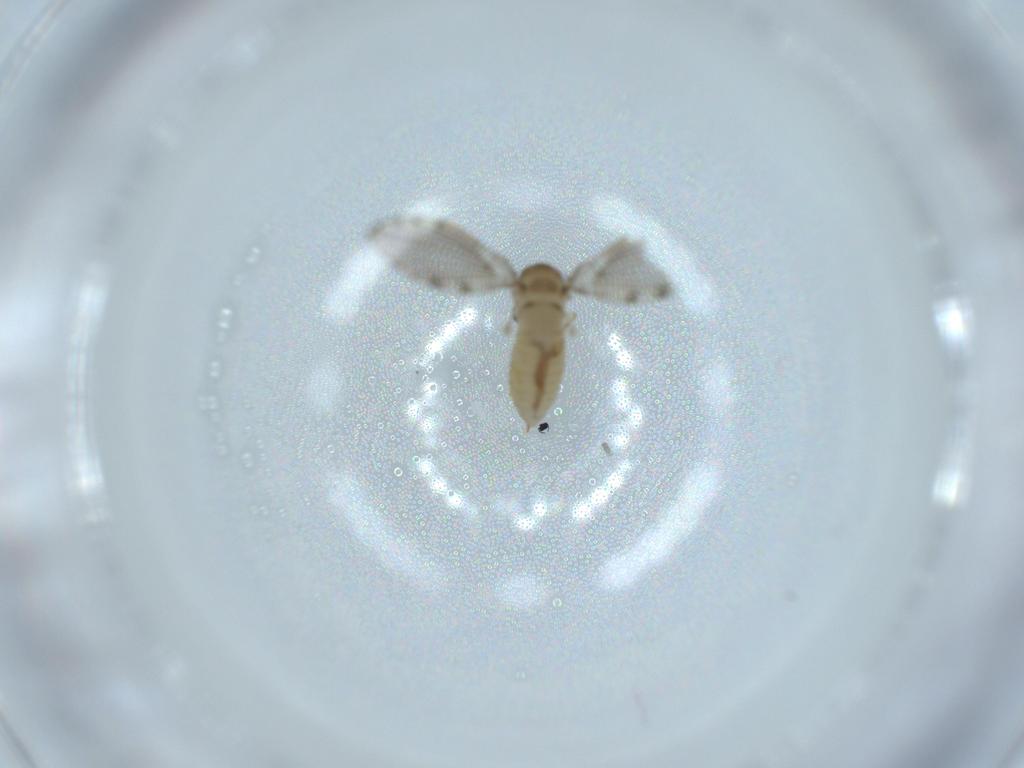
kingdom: Animalia
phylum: Arthropoda
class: Insecta
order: Diptera
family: Psychodidae
